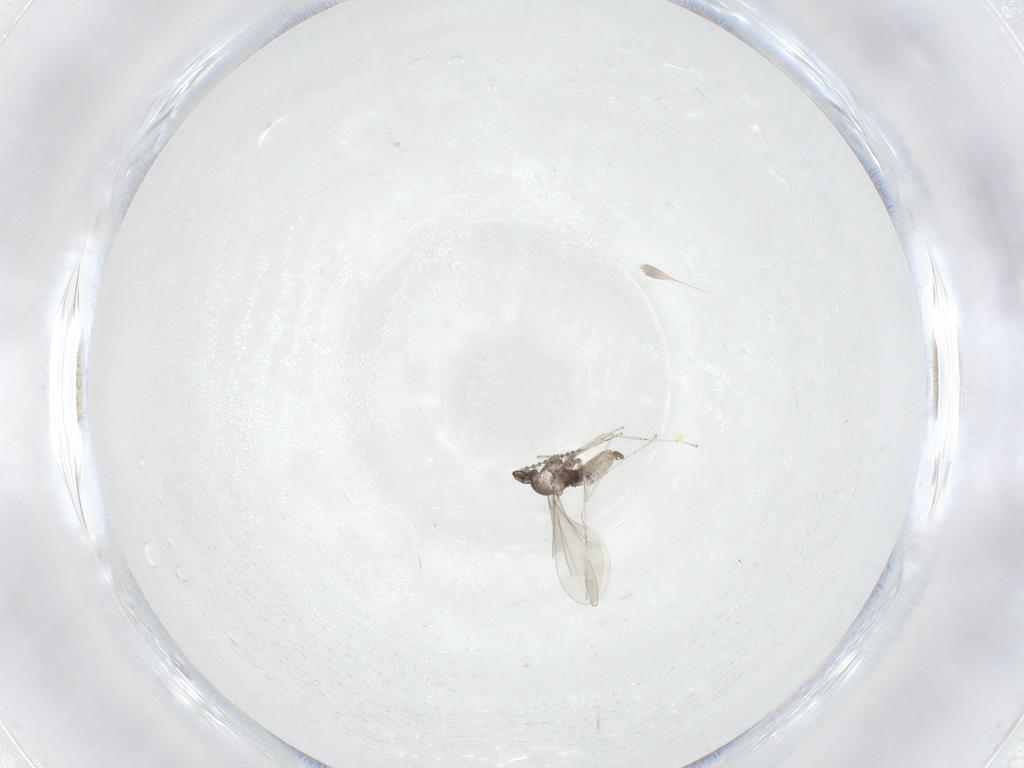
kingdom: Animalia
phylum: Arthropoda
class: Insecta
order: Diptera
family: Cecidomyiidae
